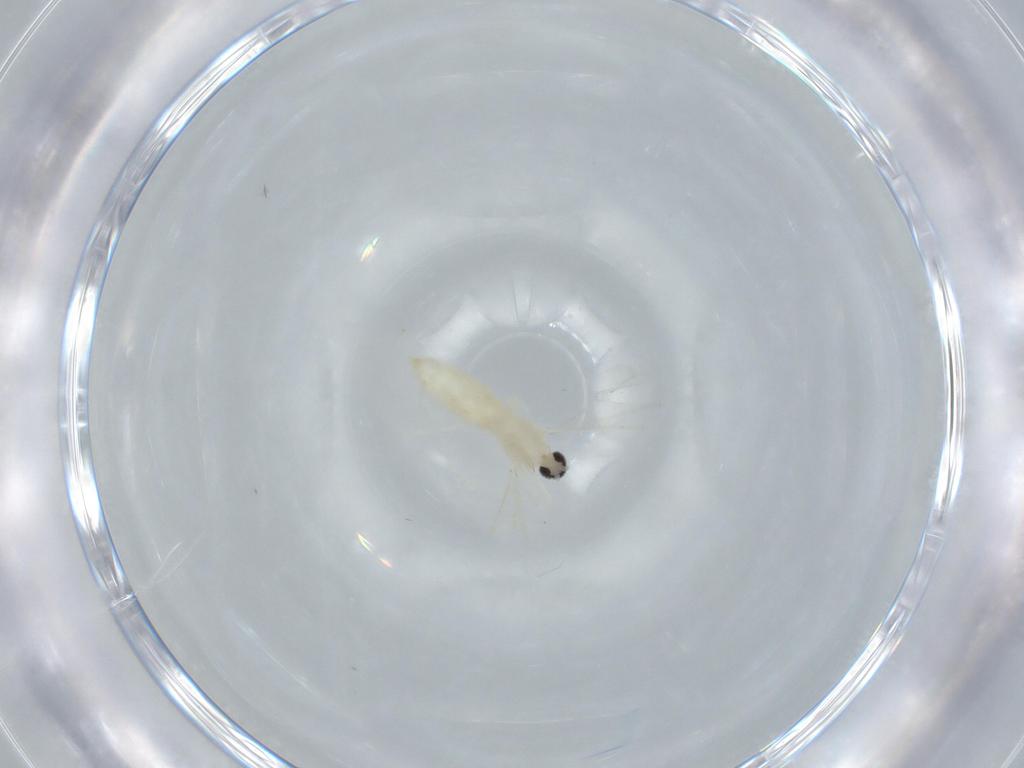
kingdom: Animalia
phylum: Arthropoda
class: Insecta
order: Diptera
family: Cecidomyiidae
